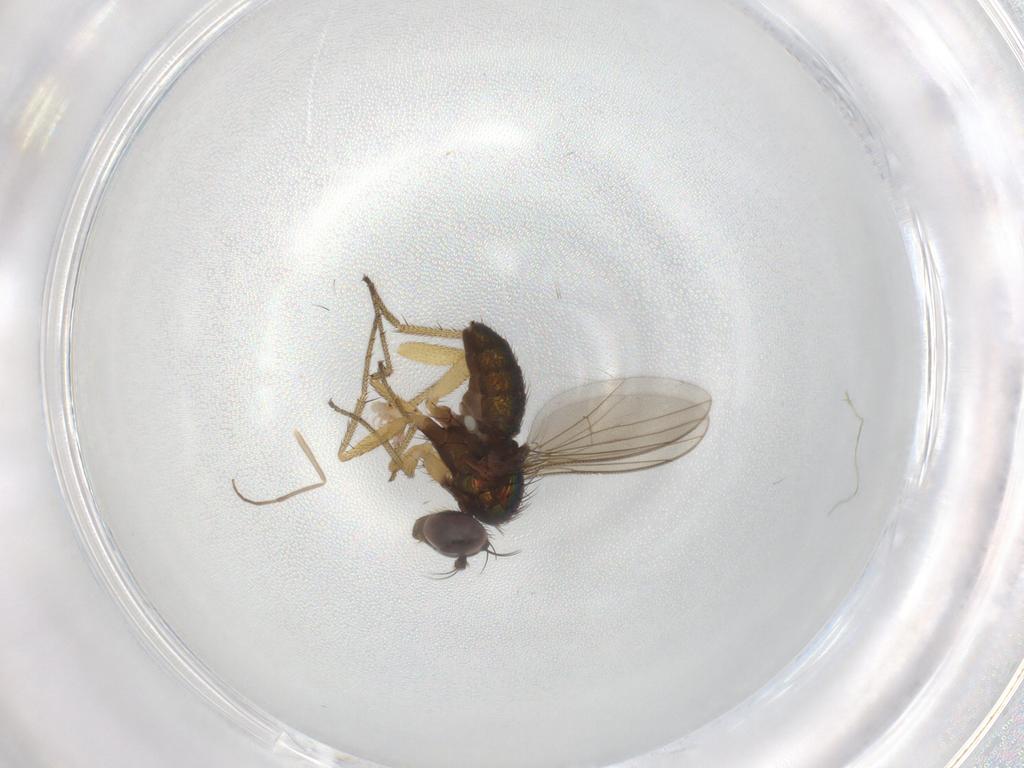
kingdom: Animalia
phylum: Arthropoda
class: Insecta
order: Diptera
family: Dolichopodidae
